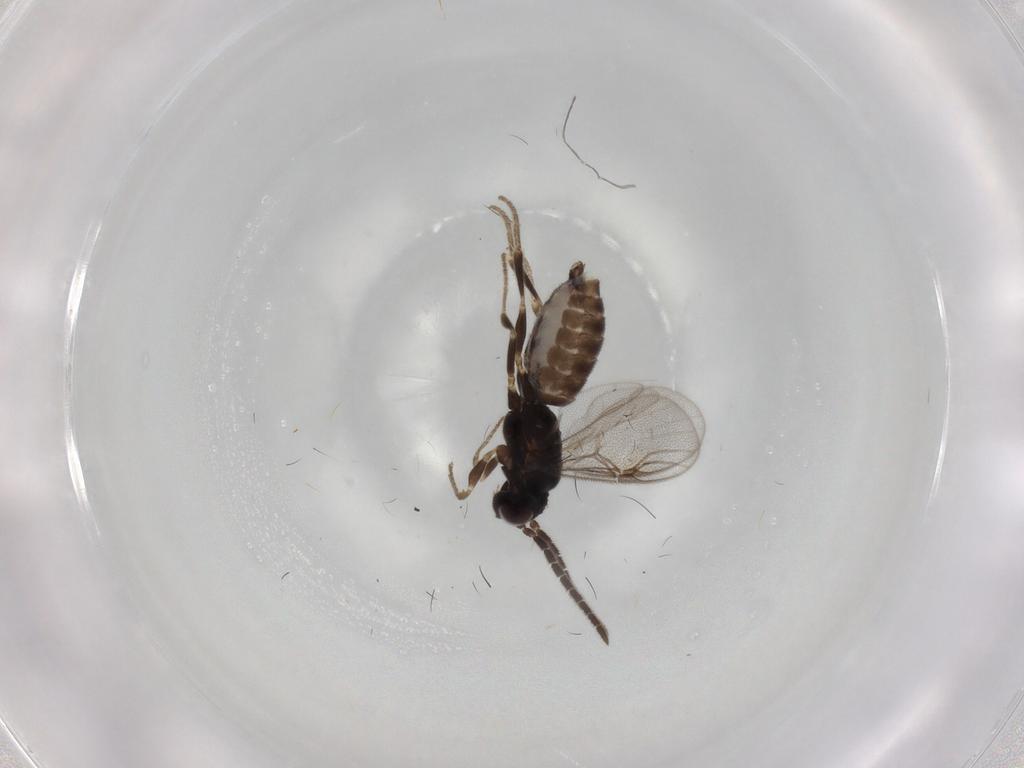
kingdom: Animalia
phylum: Arthropoda
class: Insecta
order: Hymenoptera
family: Dryinidae
